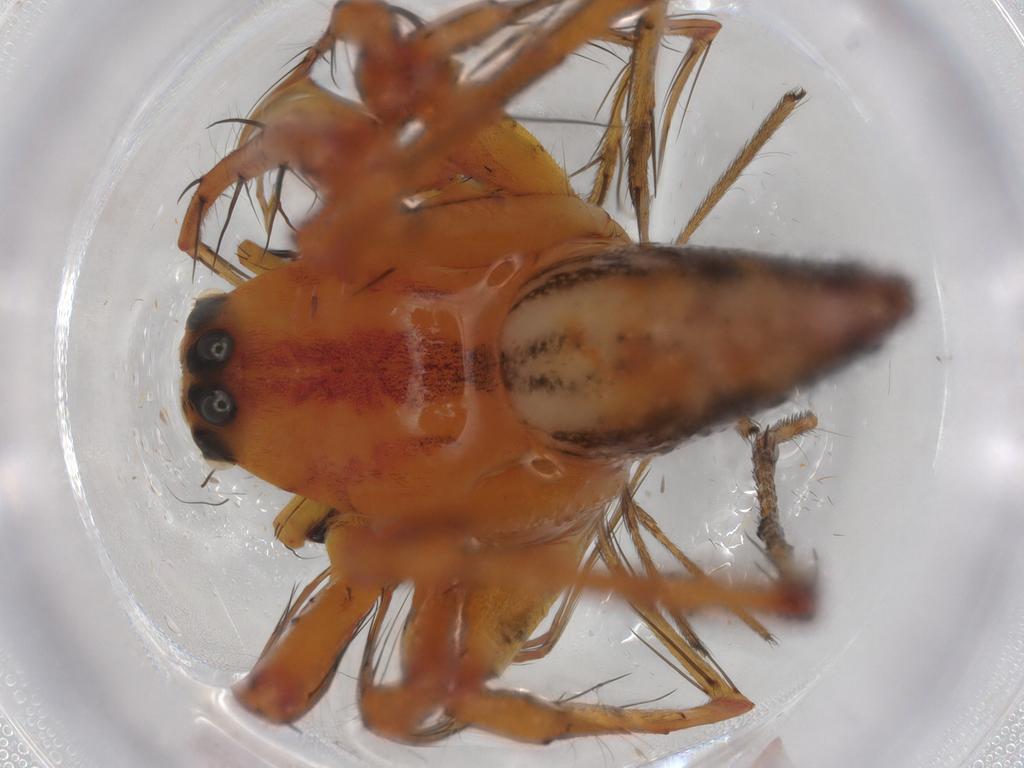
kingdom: Animalia
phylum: Arthropoda
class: Arachnida
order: Araneae
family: Oxyopidae
